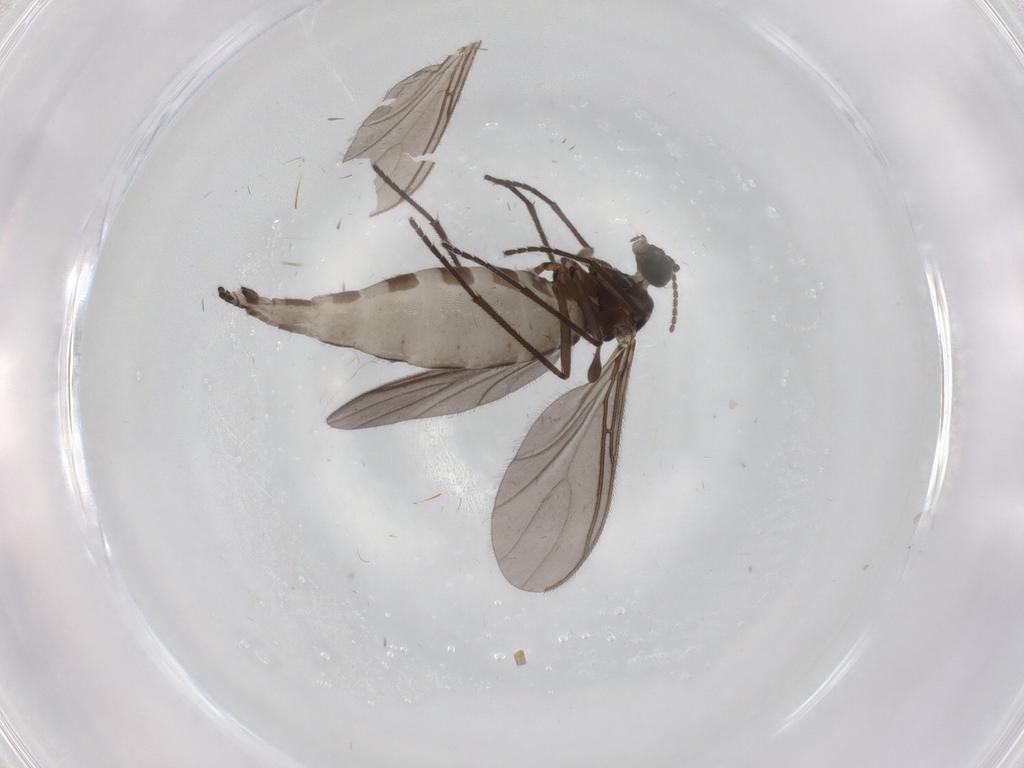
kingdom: Animalia
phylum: Arthropoda
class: Insecta
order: Diptera
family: Sciaridae
